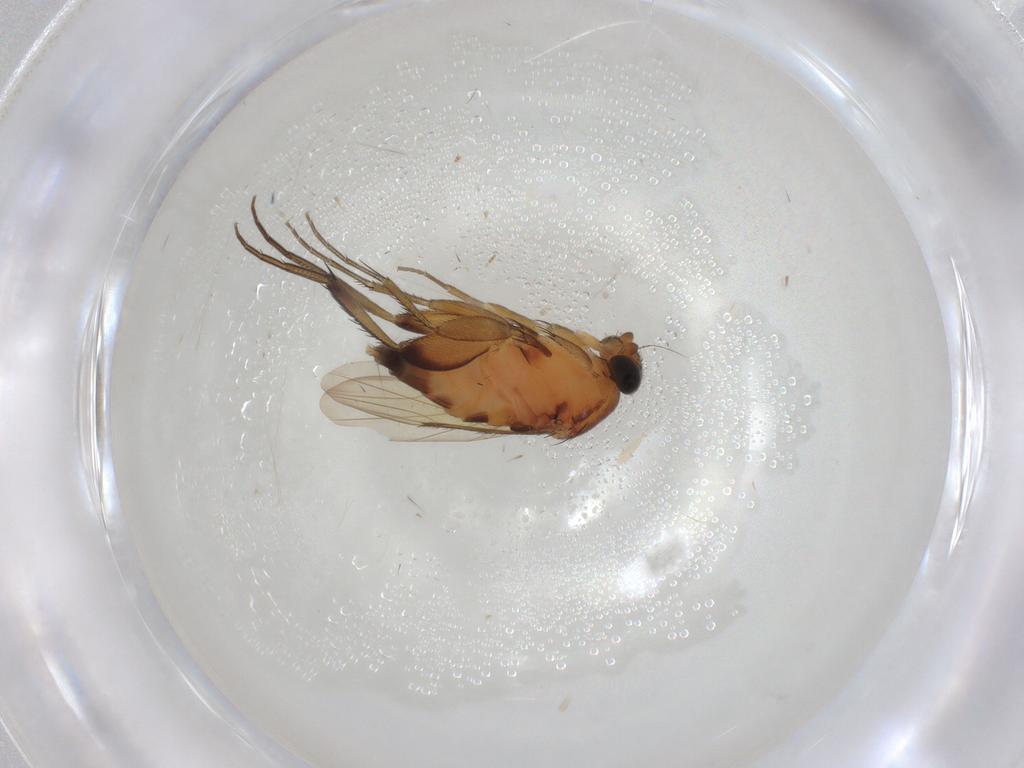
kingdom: Animalia
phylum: Arthropoda
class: Insecta
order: Diptera
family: Phoridae
